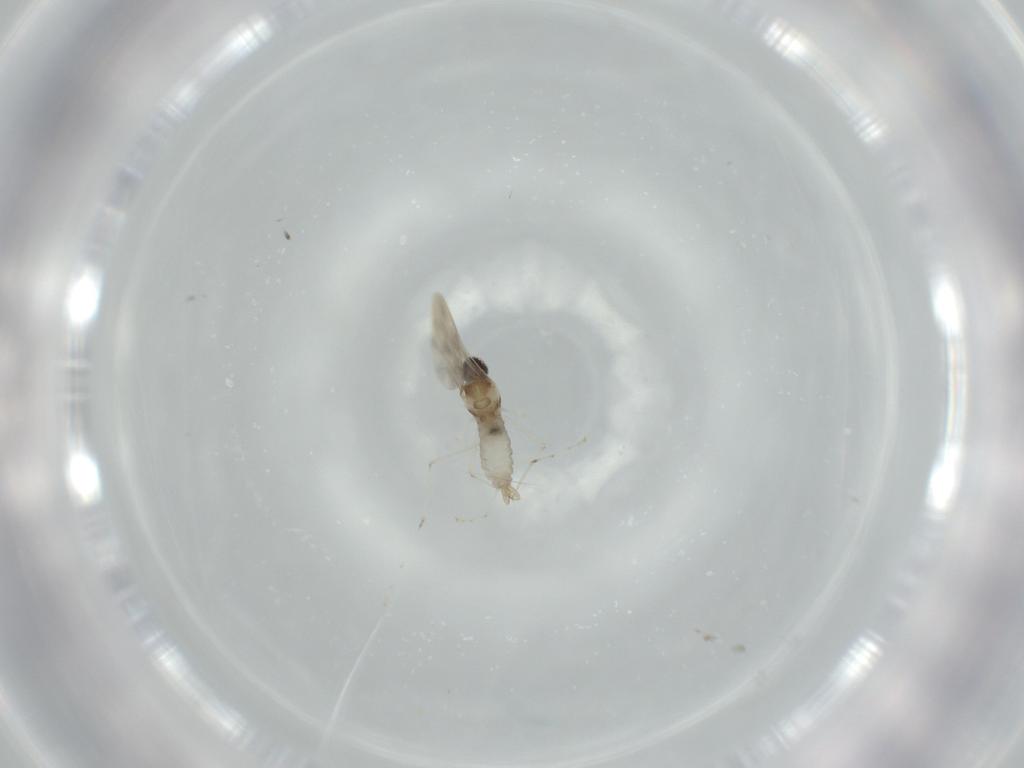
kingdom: Animalia
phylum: Arthropoda
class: Insecta
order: Diptera
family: Cecidomyiidae
